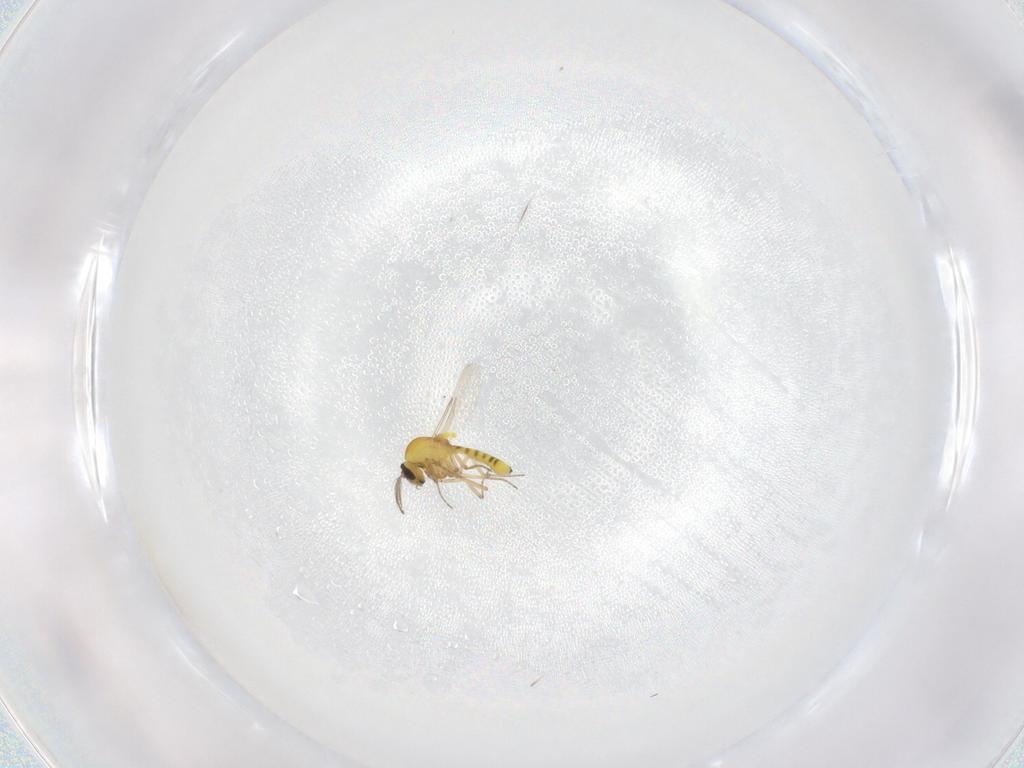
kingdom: Animalia
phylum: Arthropoda
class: Insecta
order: Diptera
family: Ceratopogonidae
